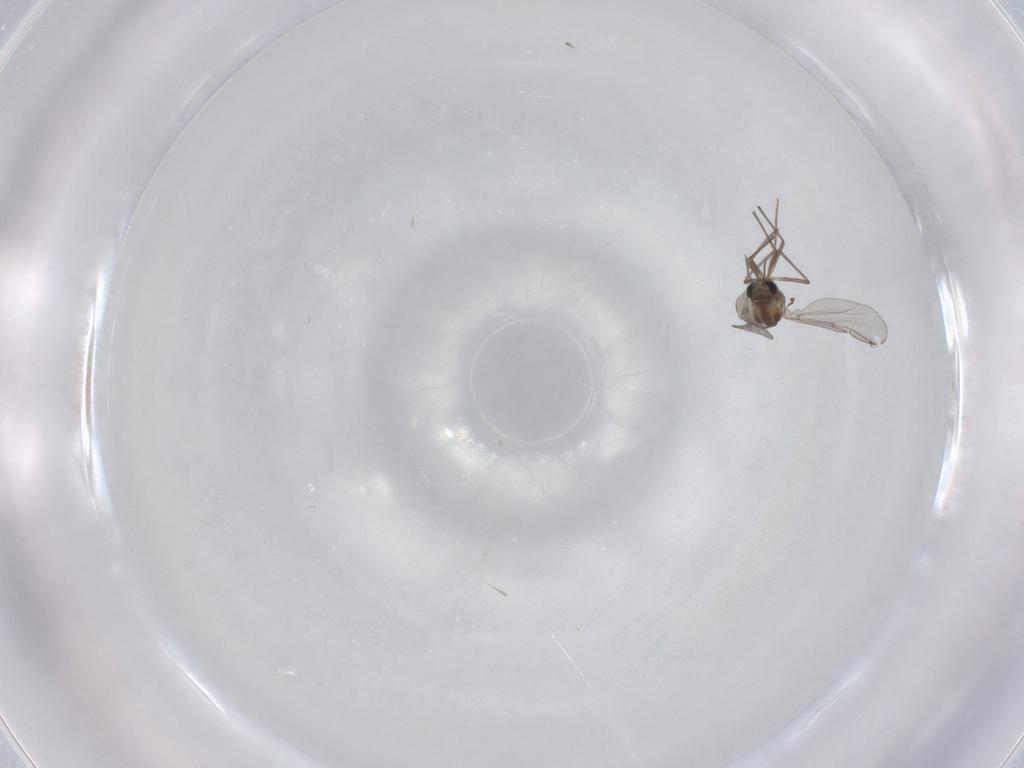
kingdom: Animalia
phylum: Arthropoda
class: Insecta
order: Diptera
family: Chironomidae
